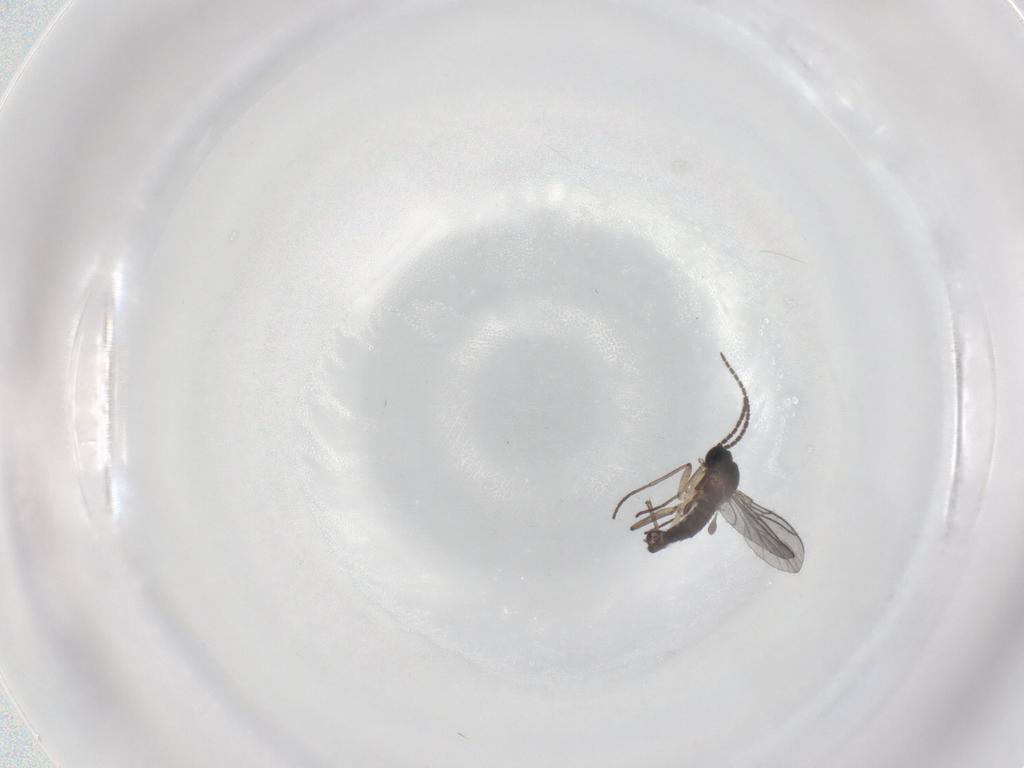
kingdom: Animalia
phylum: Arthropoda
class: Insecta
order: Diptera
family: Sciaridae
